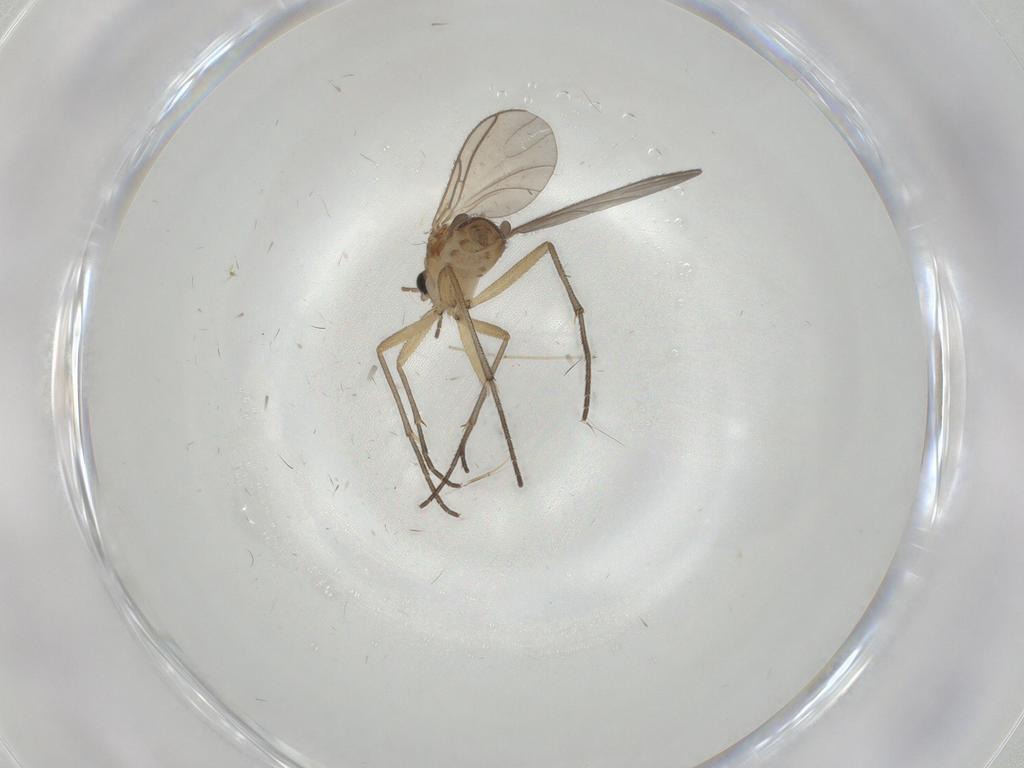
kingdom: Animalia
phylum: Arthropoda
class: Insecta
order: Diptera
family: Sciaridae
